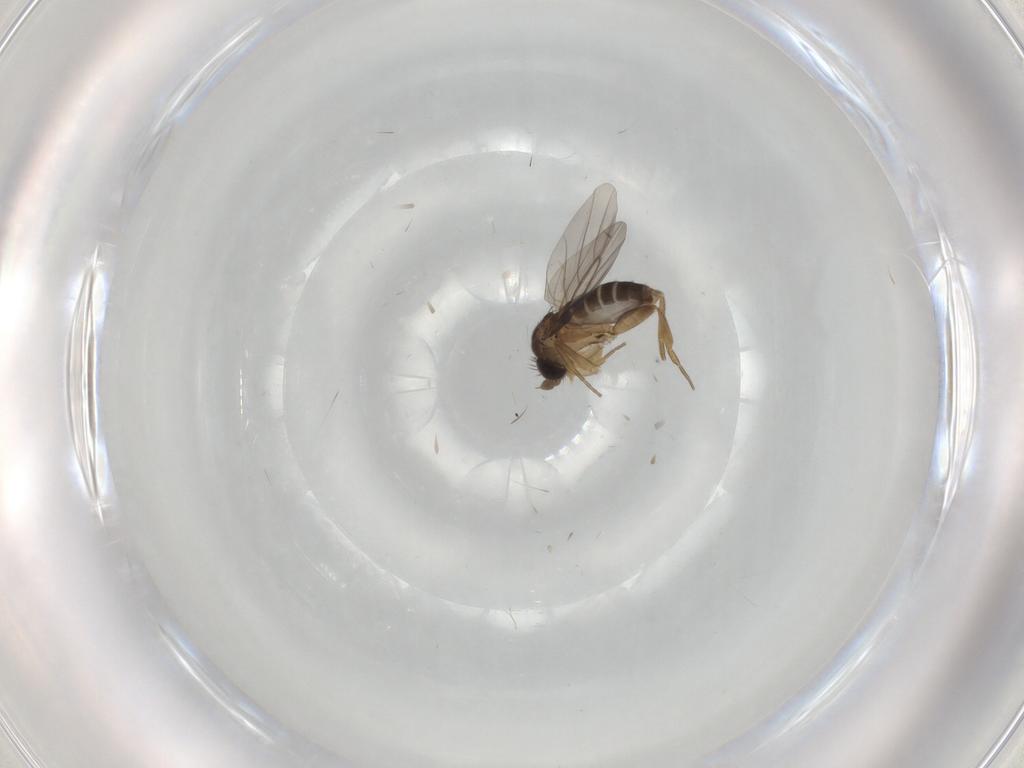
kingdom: Animalia
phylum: Arthropoda
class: Insecta
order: Diptera
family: Phoridae
